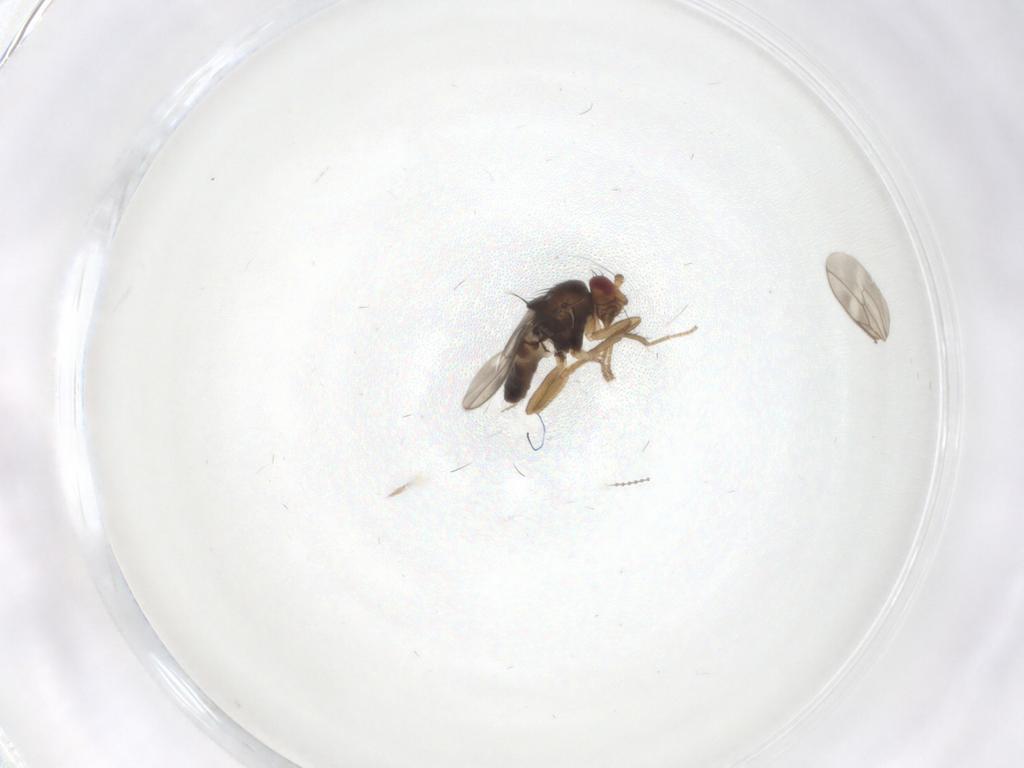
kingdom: Animalia
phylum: Arthropoda
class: Insecta
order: Diptera
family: Sphaeroceridae
